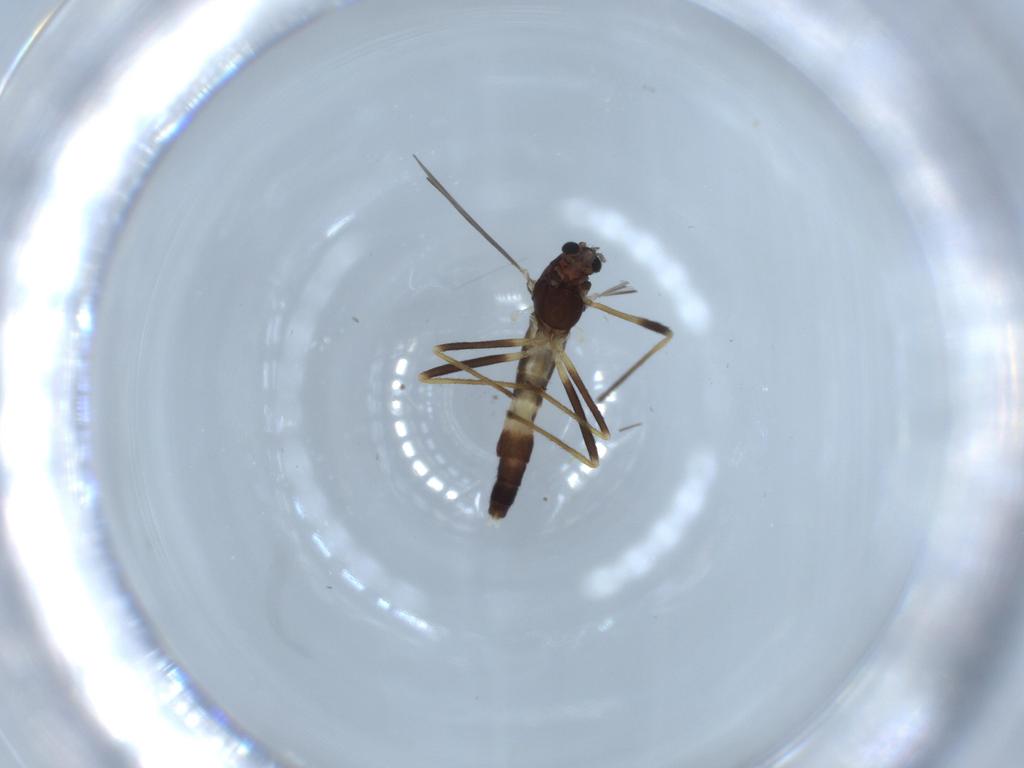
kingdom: Animalia
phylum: Arthropoda
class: Insecta
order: Diptera
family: Chironomidae
